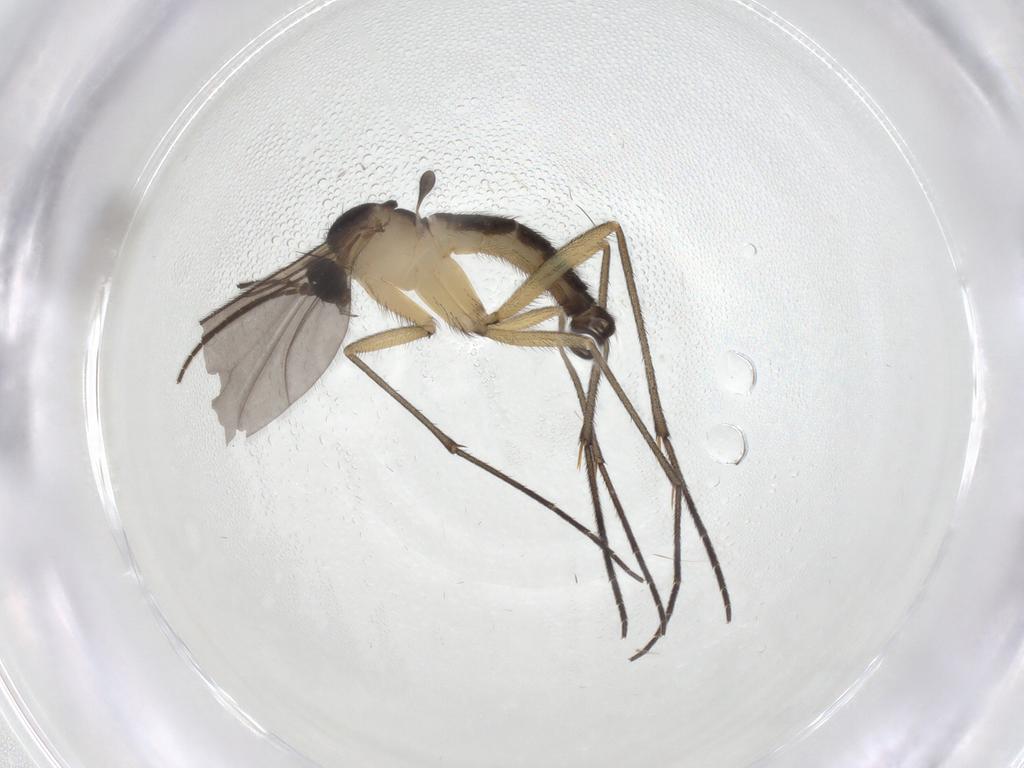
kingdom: Animalia
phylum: Arthropoda
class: Insecta
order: Diptera
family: Sciaridae
